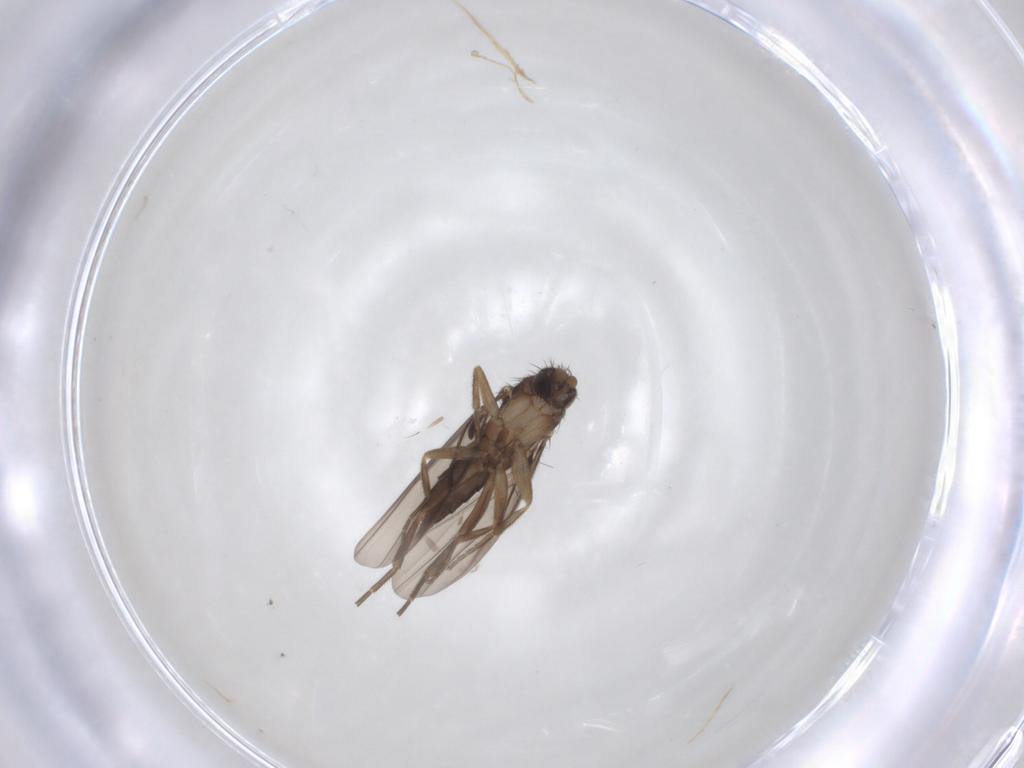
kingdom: Animalia
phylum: Arthropoda
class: Insecta
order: Diptera
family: Phoridae
